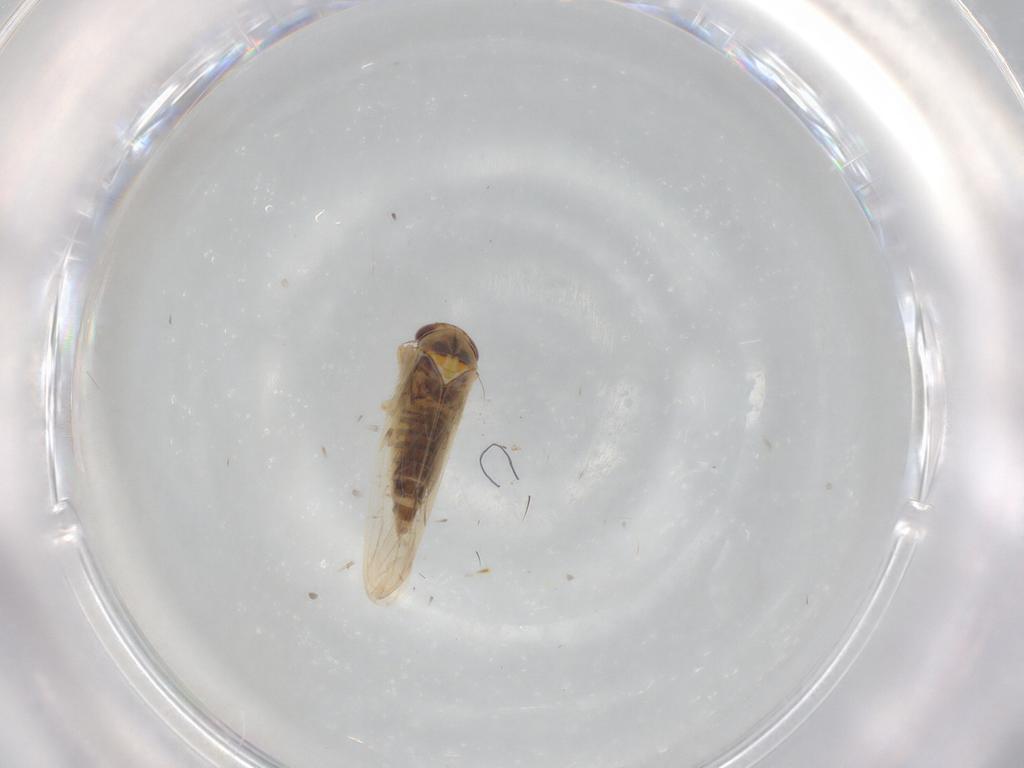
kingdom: Animalia
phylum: Arthropoda
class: Insecta
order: Hemiptera
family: Cicadellidae
